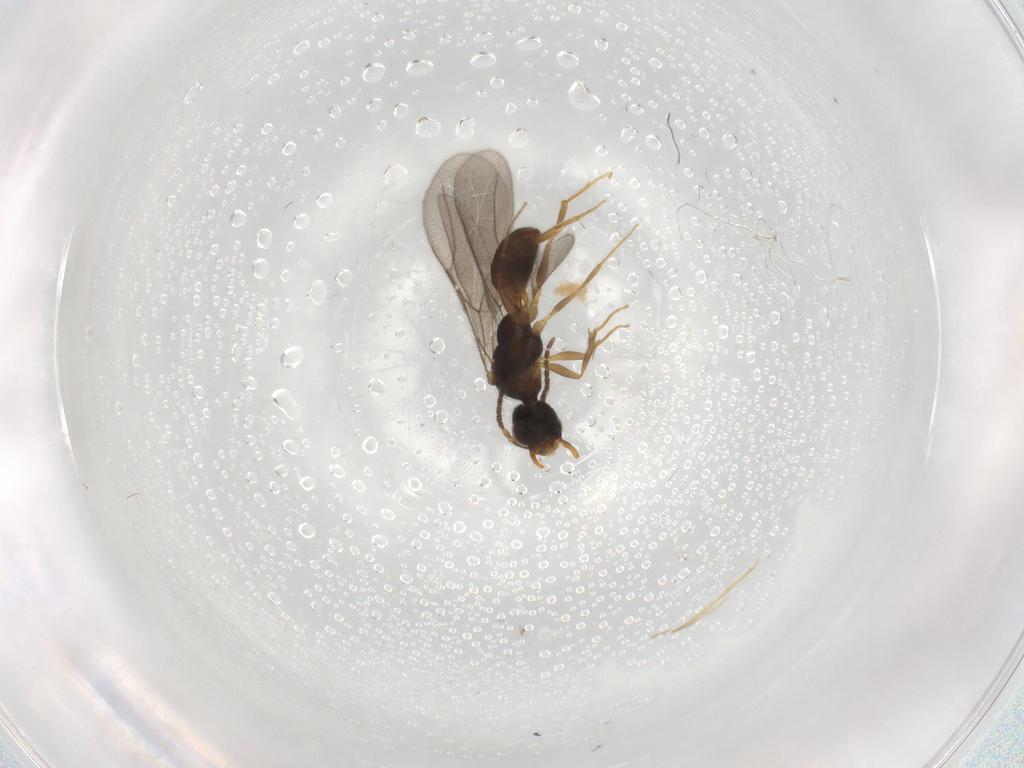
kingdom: Animalia
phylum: Arthropoda
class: Insecta
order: Hymenoptera
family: Bethylidae
